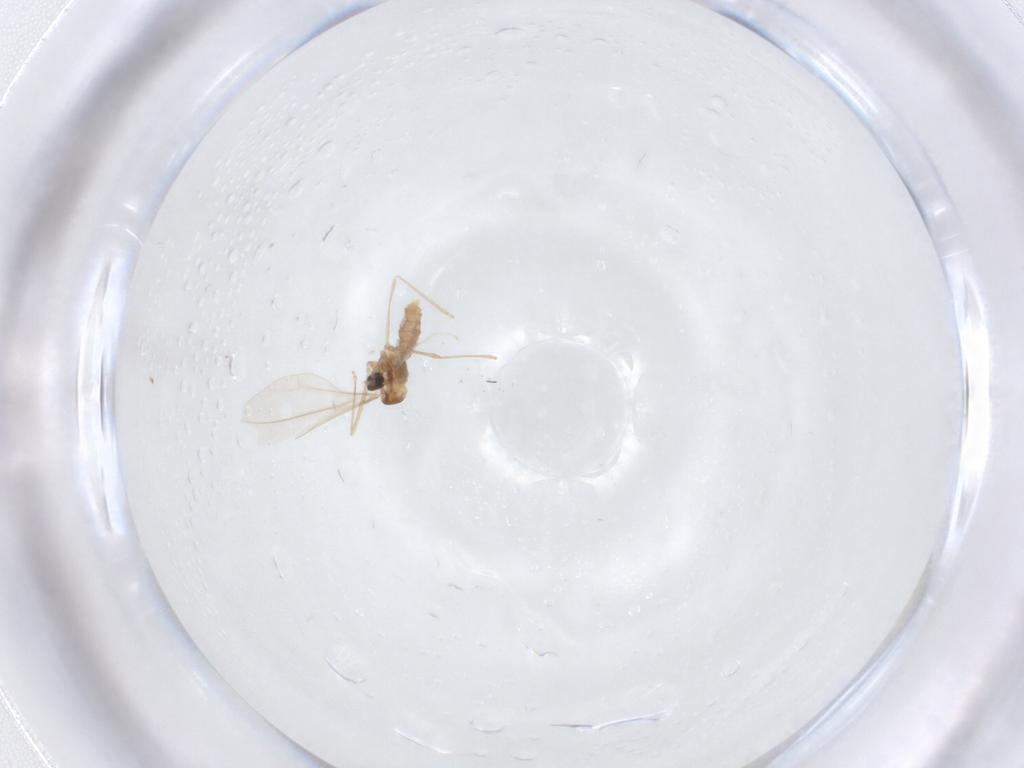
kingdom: Animalia
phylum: Arthropoda
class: Insecta
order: Diptera
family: Cecidomyiidae
